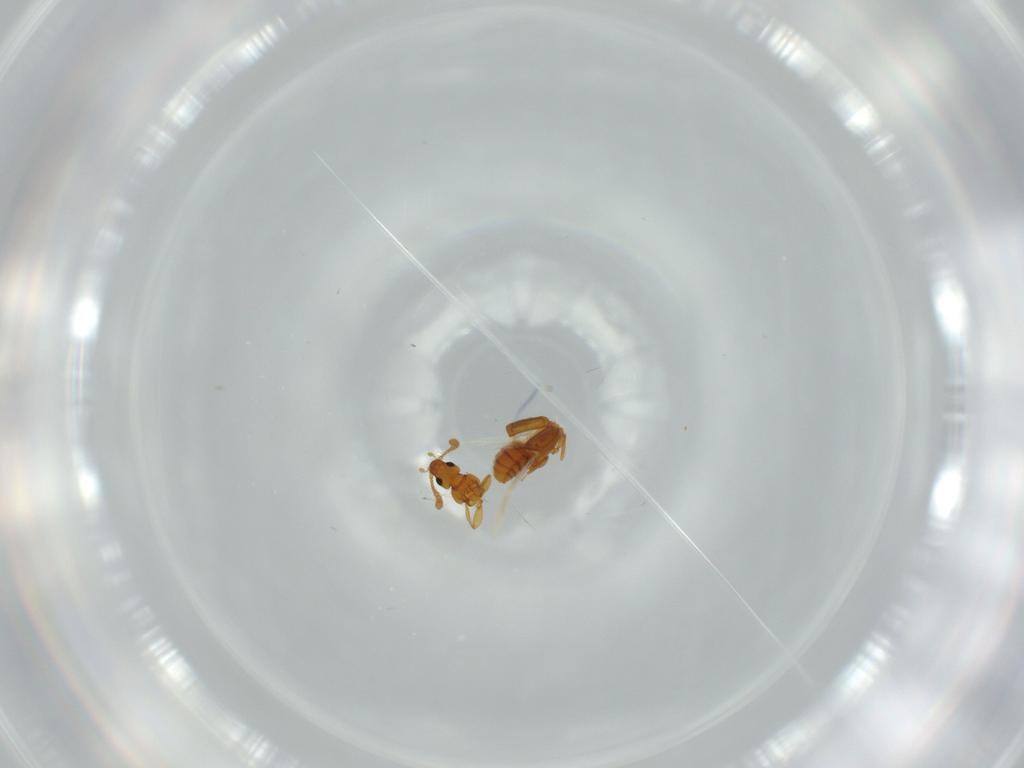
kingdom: Animalia
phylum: Arthropoda
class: Insecta
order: Coleoptera
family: Staphylinidae
